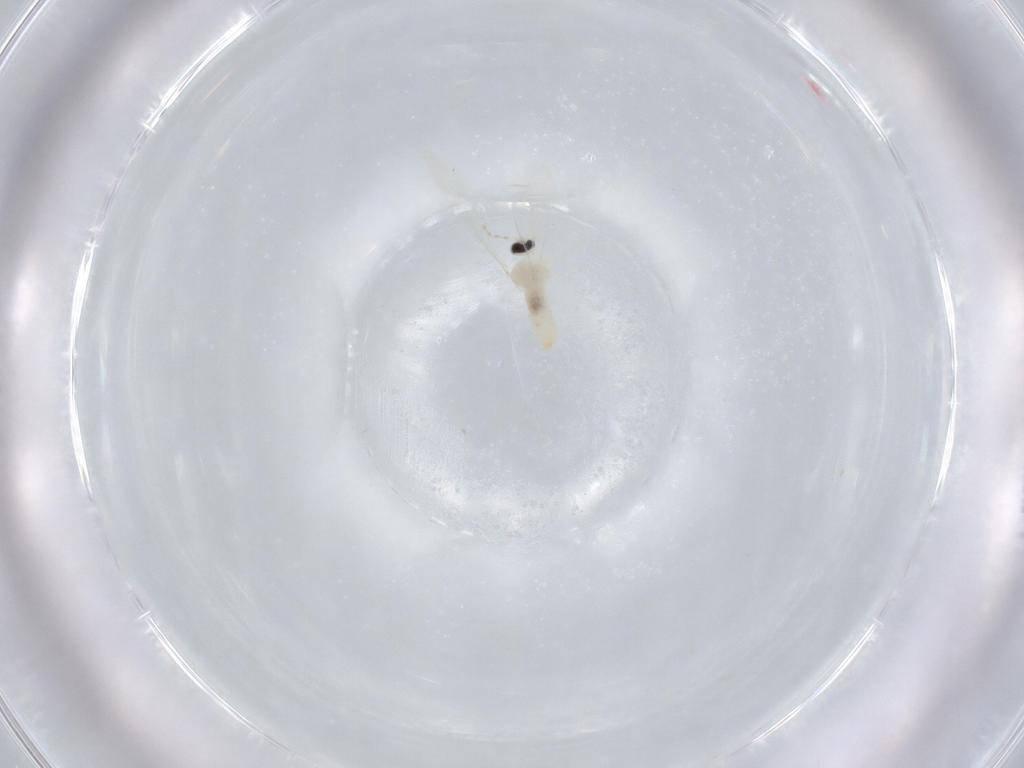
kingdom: Animalia
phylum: Arthropoda
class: Insecta
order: Diptera
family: Cecidomyiidae
